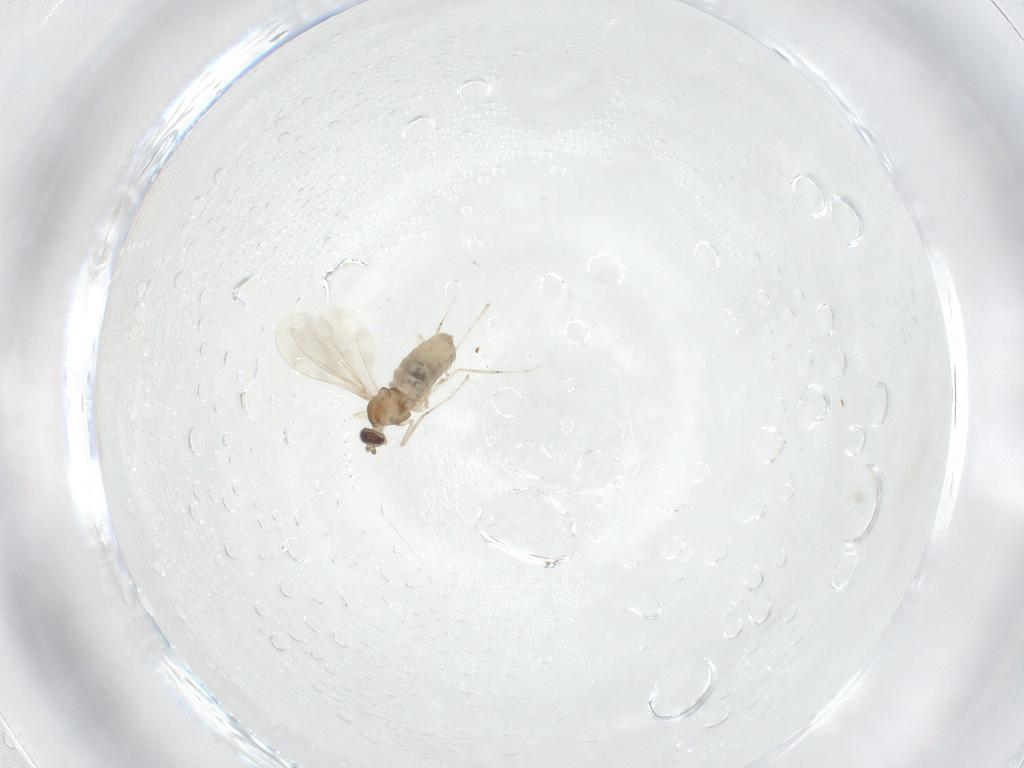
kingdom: Animalia
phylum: Arthropoda
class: Insecta
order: Diptera
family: Cecidomyiidae
